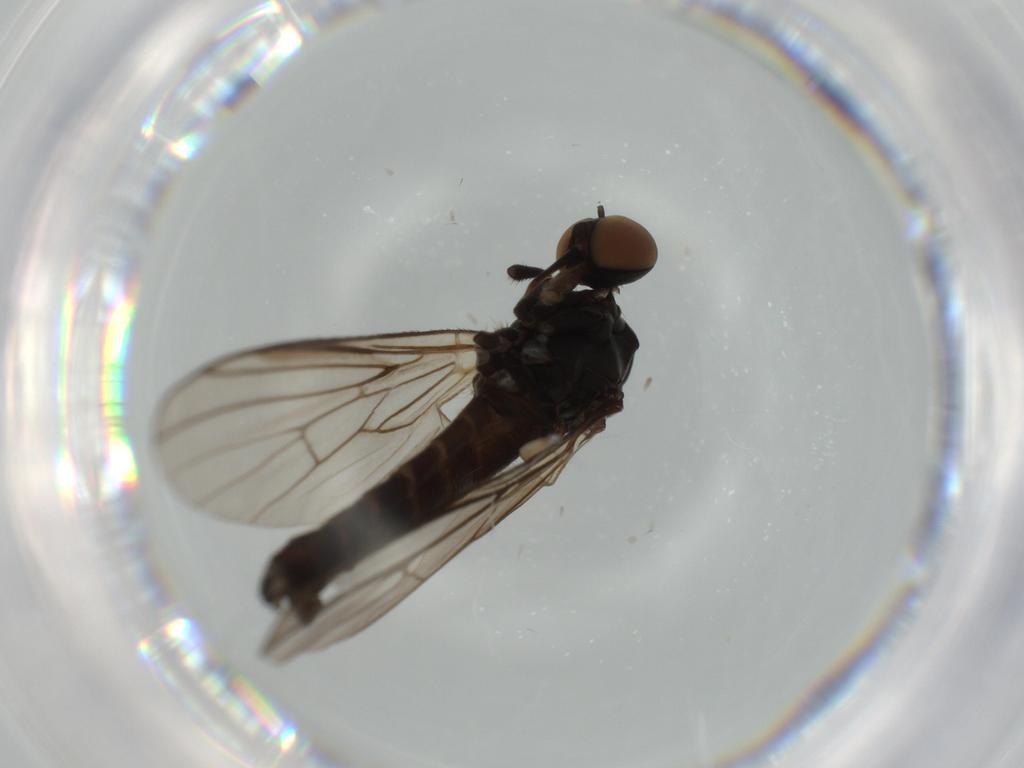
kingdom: Animalia
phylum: Arthropoda
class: Insecta
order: Diptera
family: Empididae
